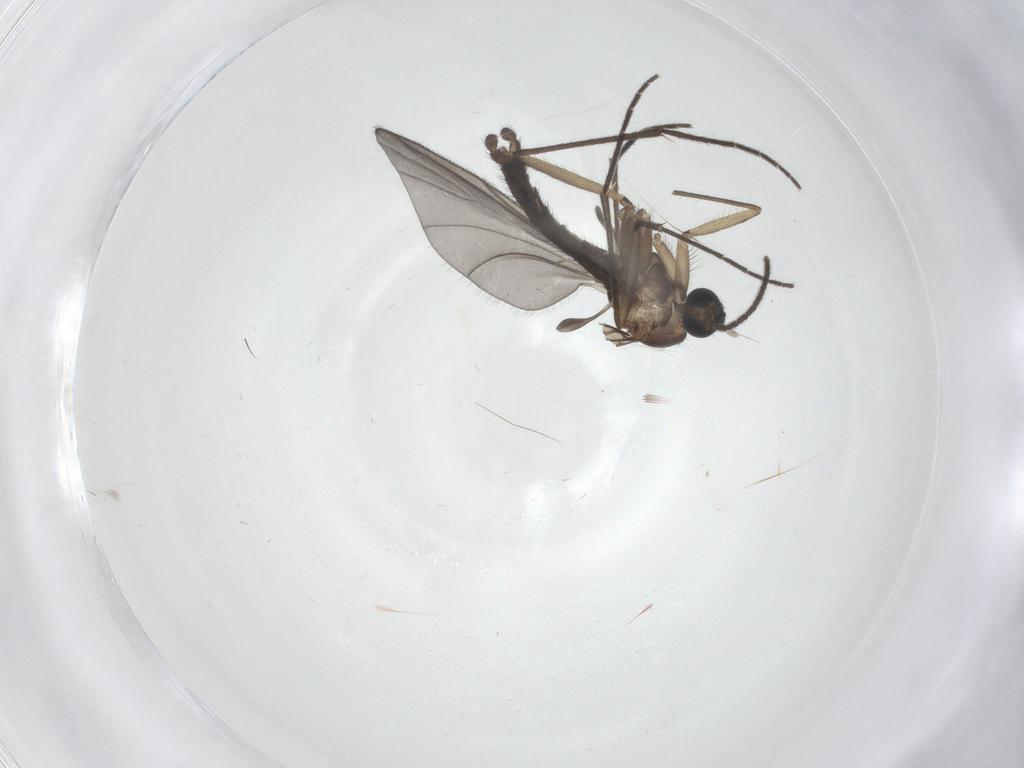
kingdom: Animalia
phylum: Arthropoda
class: Insecta
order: Diptera
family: Sciaridae
